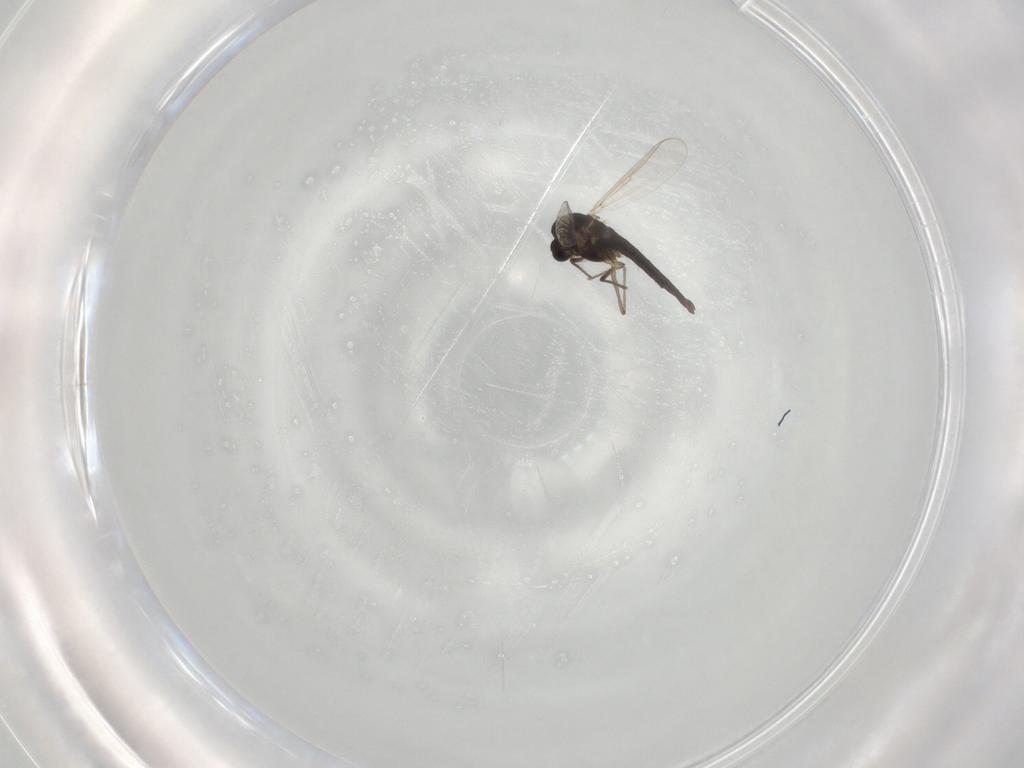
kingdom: Animalia
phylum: Arthropoda
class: Insecta
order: Diptera
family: Chironomidae
